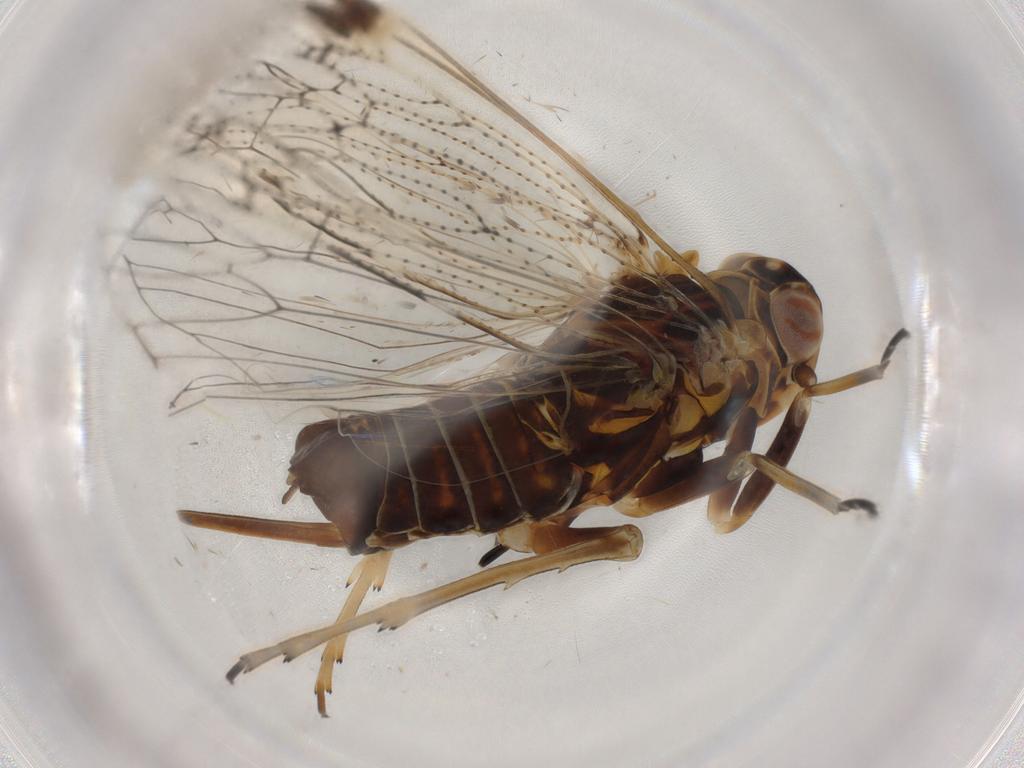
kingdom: Animalia
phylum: Arthropoda
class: Insecta
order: Hemiptera
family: Cixiidae
